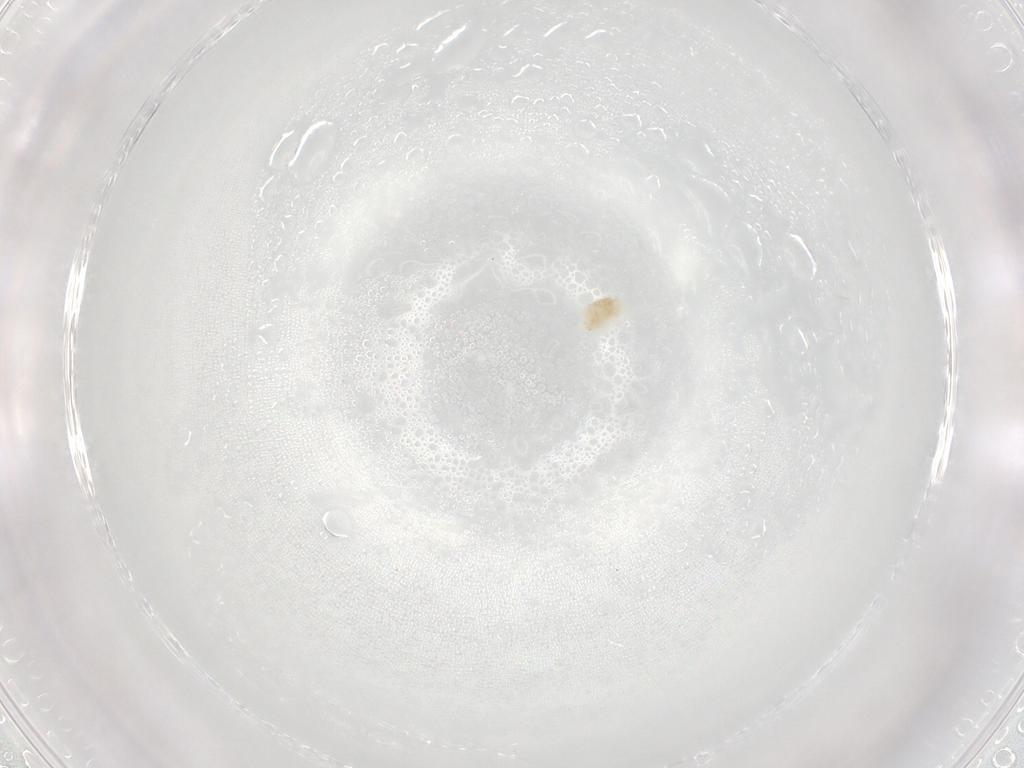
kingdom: Animalia
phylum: Arthropoda
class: Arachnida
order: Trombidiformes
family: Eupodidae
